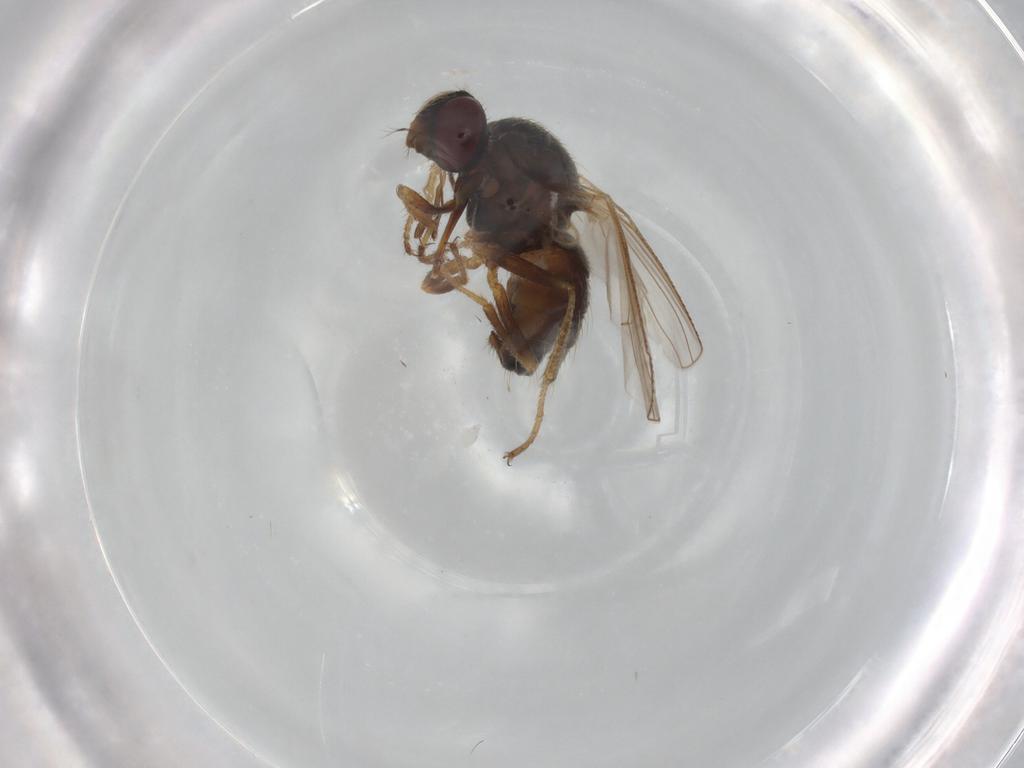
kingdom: Animalia
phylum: Arthropoda
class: Insecta
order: Diptera
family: Muscidae
